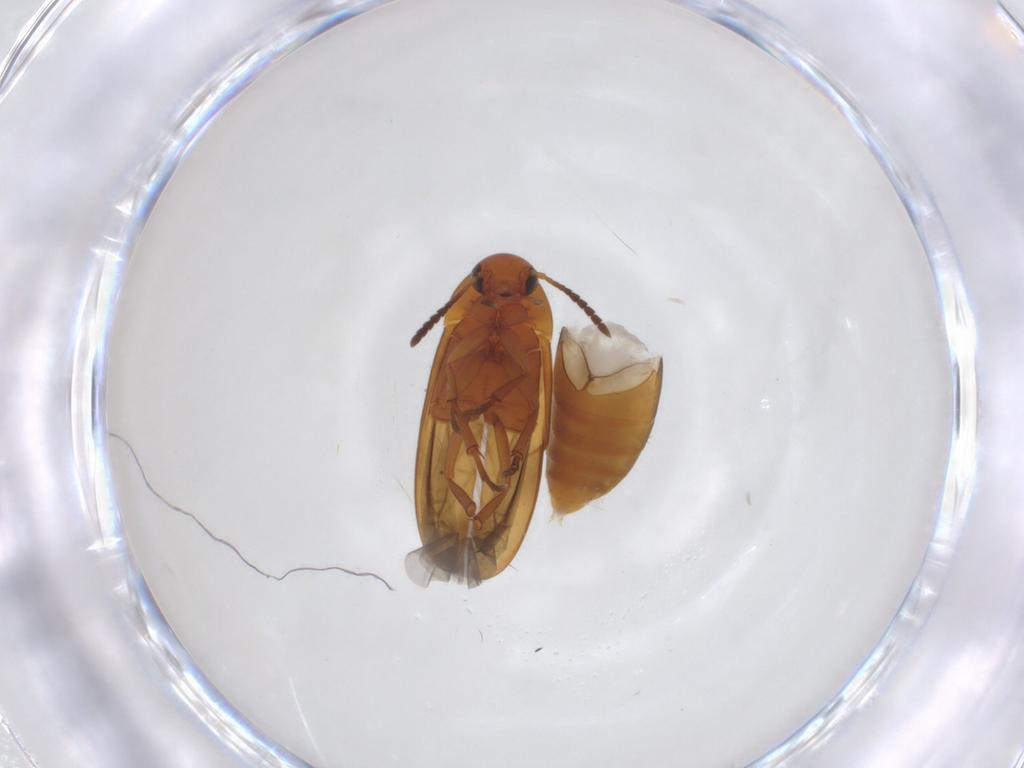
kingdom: Animalia
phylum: Arthropoda
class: Insecta
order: Coleoptera
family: Scraptiidae
